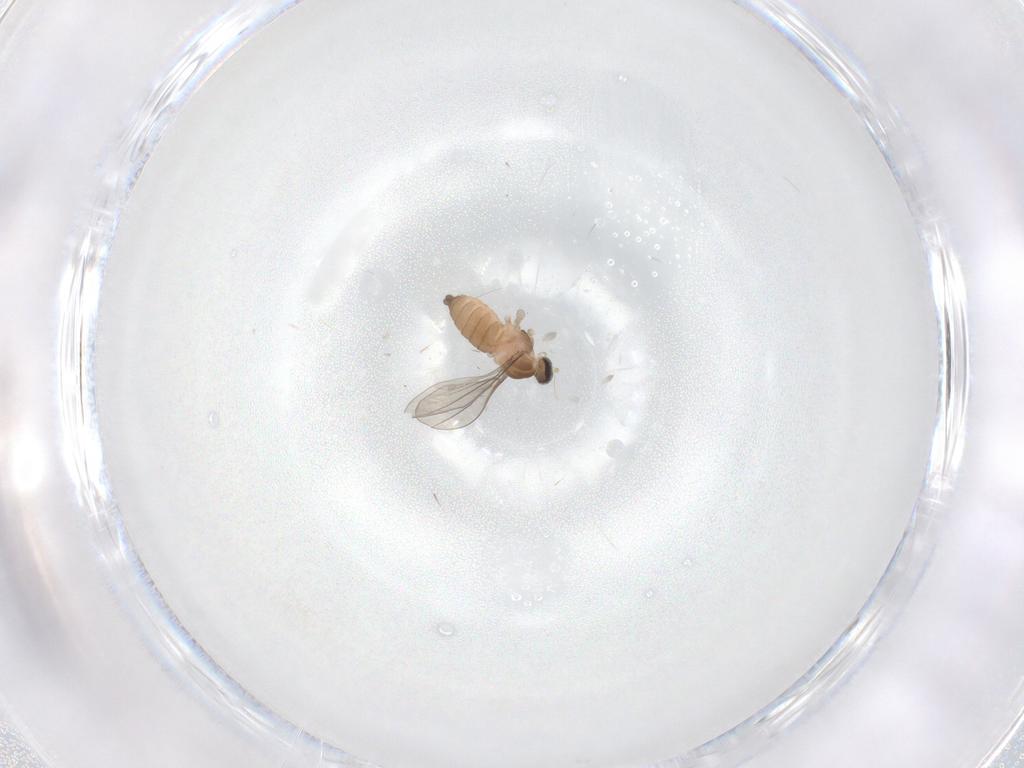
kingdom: Animalia
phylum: Arthropoda
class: Insecta
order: Diptera
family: Cecidomyiidae
